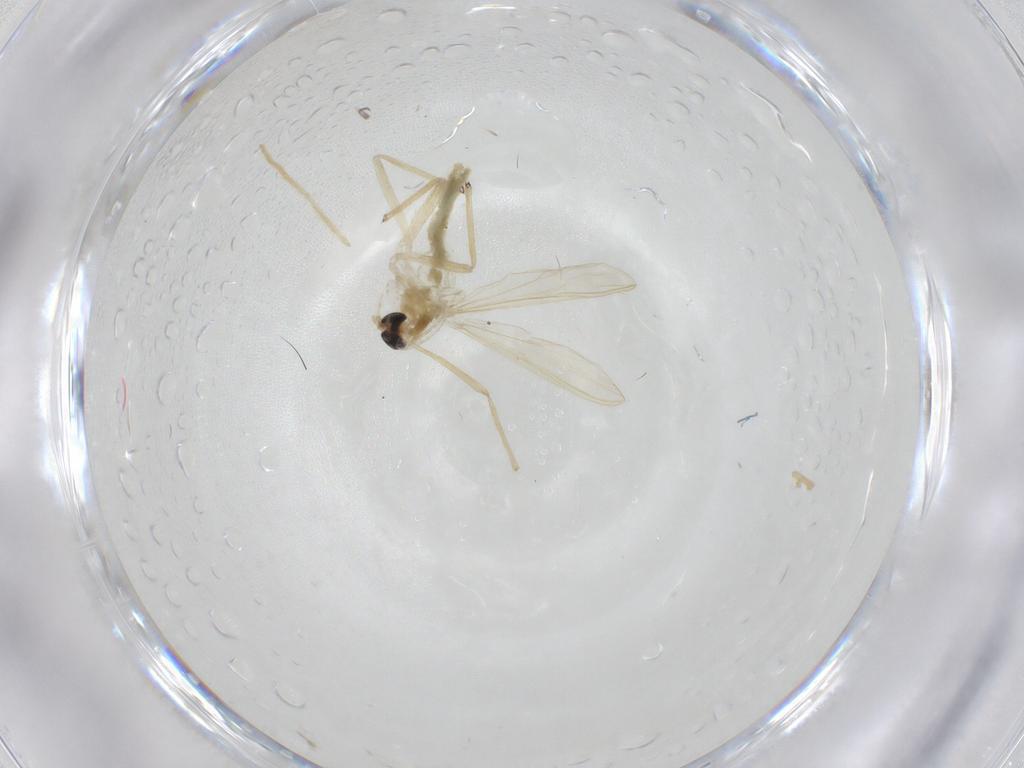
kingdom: Animalia
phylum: Arthropoda
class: Insecta
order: Diptera
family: Chironomidae
